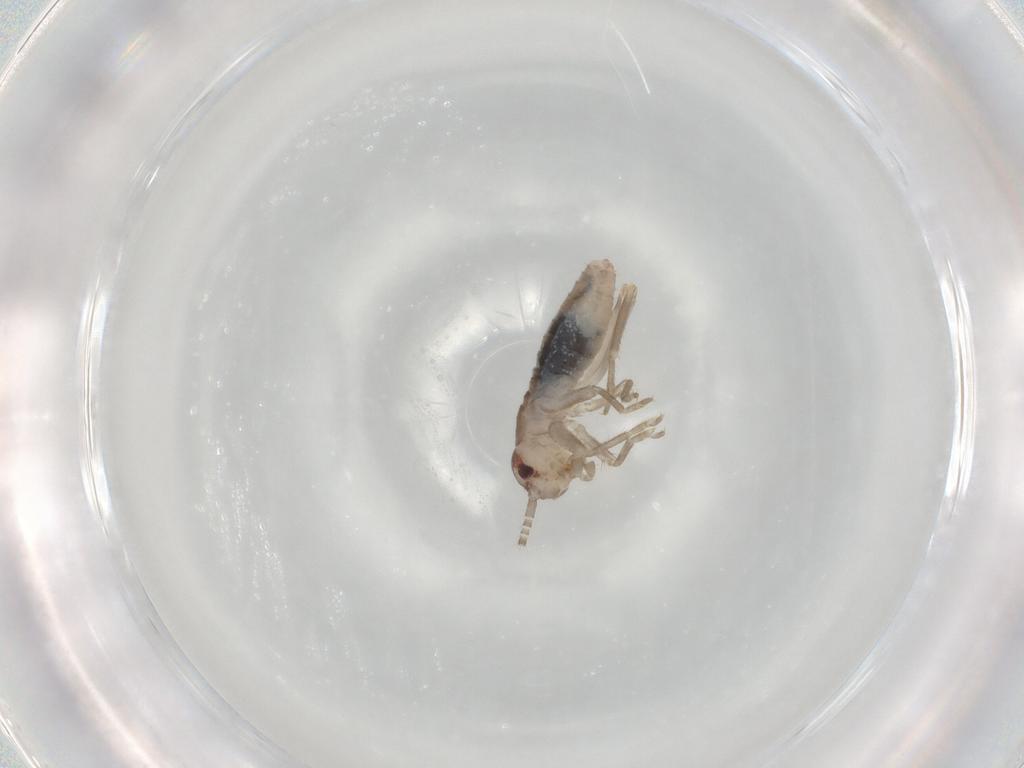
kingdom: Animalia
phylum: Arthropoda
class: Insecta
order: Orthoptera
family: Mogoplistidae
